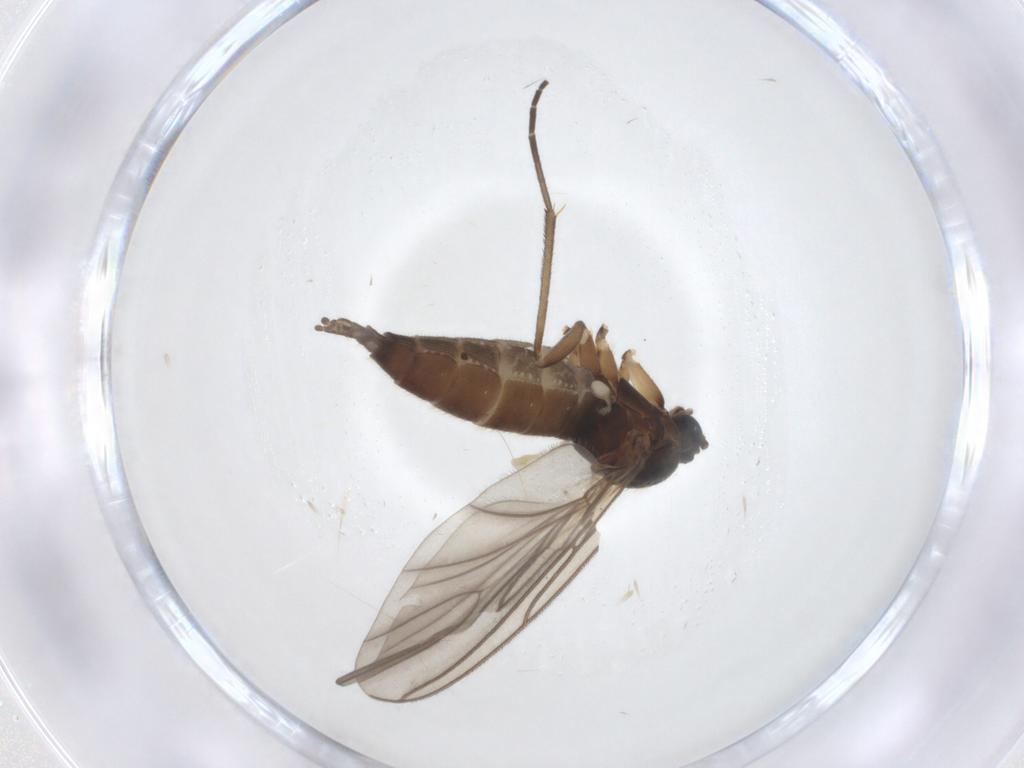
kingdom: Animalia
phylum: Arthropoda
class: Insecta
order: Diptera
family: Sciaridae
